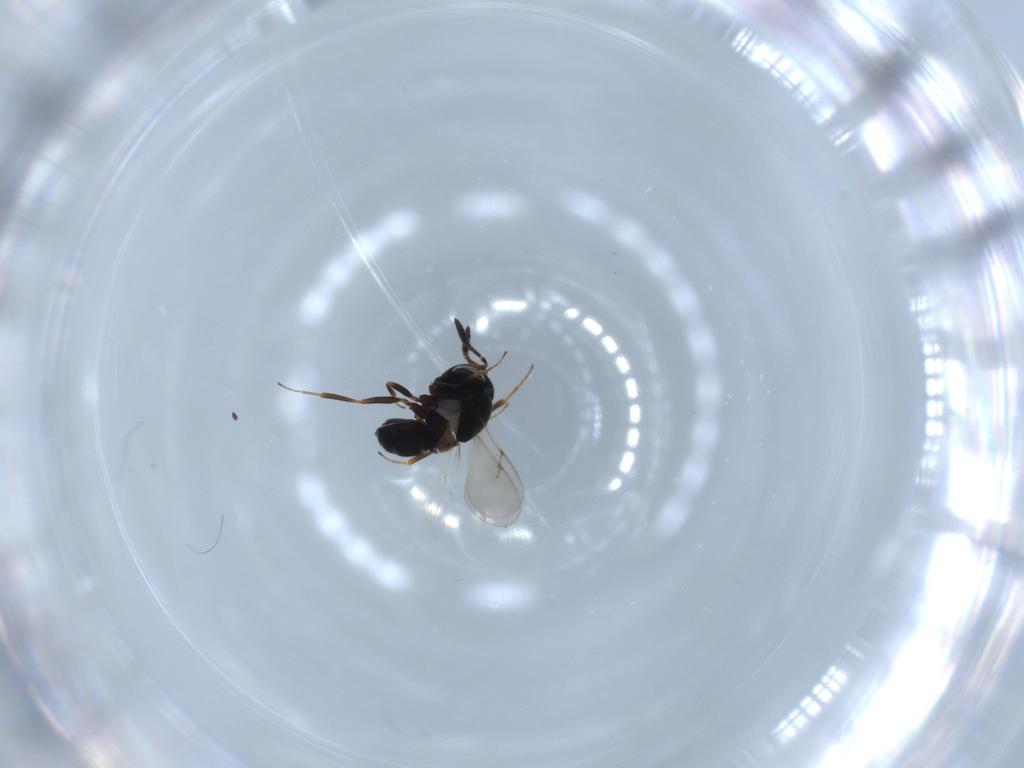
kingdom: Animalia
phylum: Arthropoda
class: Insecta
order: Hymenoptera
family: Scelionidae
